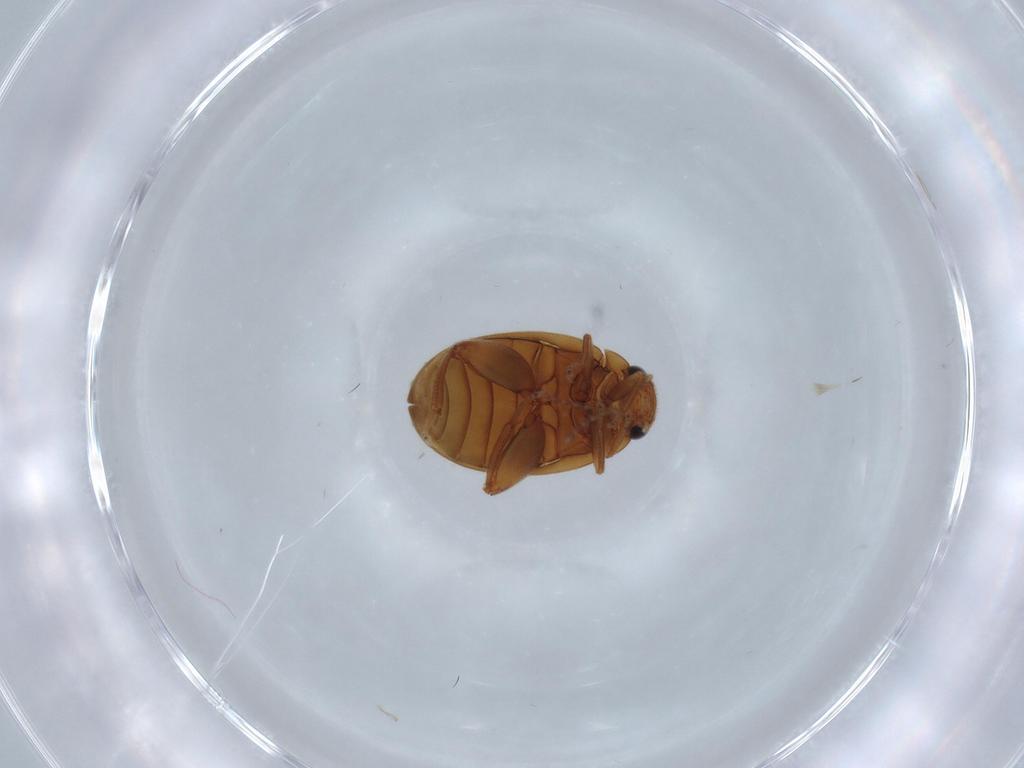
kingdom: Animalia
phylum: Arthropoda
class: Insecta
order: Coleoptera
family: Scirtidae
